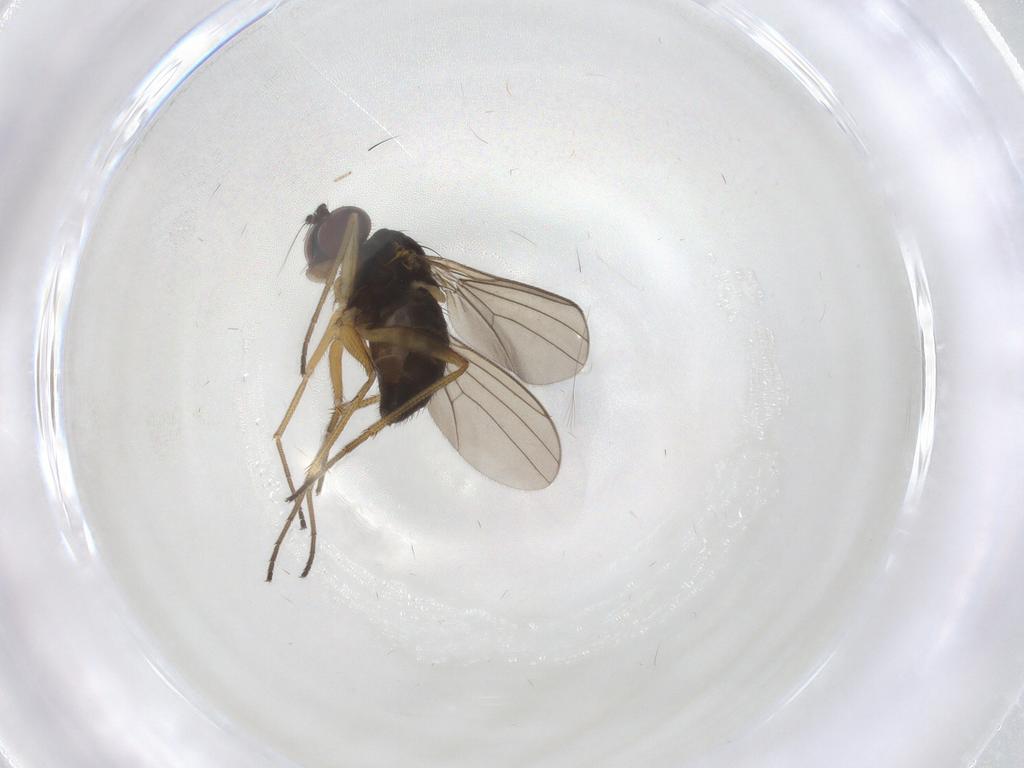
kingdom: Animalia
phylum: Arthropoda
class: Insecta
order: Diptera
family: Dolichopodidae
